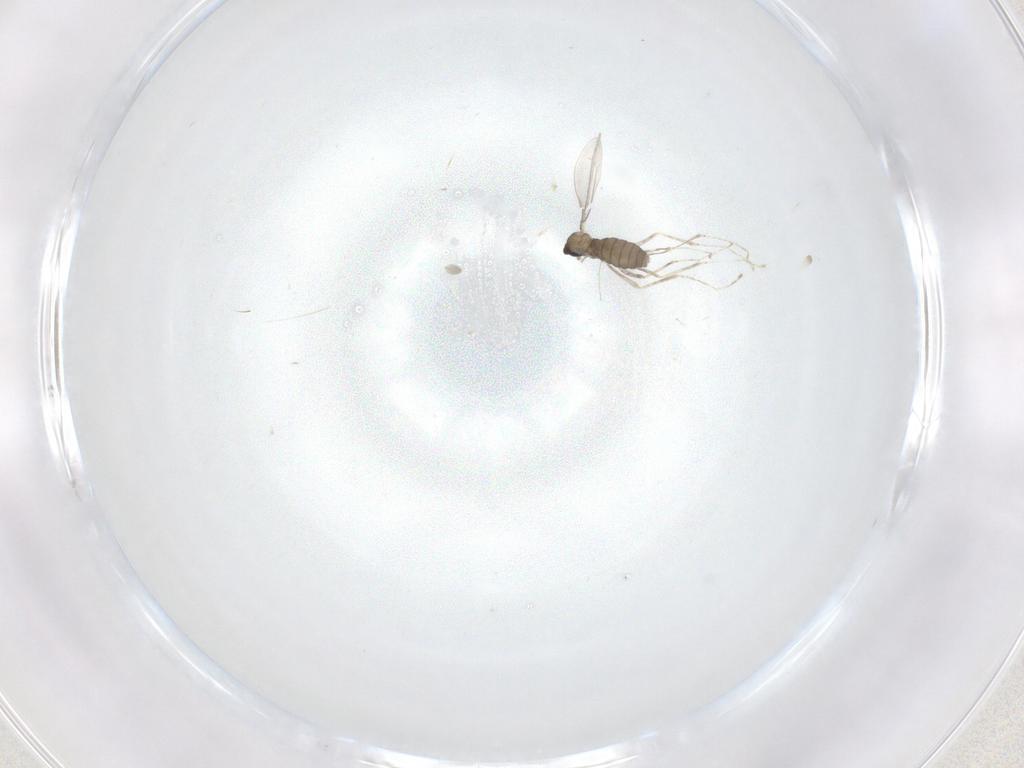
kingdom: Animalia
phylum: Arthropoda
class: Insecta
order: Diptera
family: Cecidomyiidae
